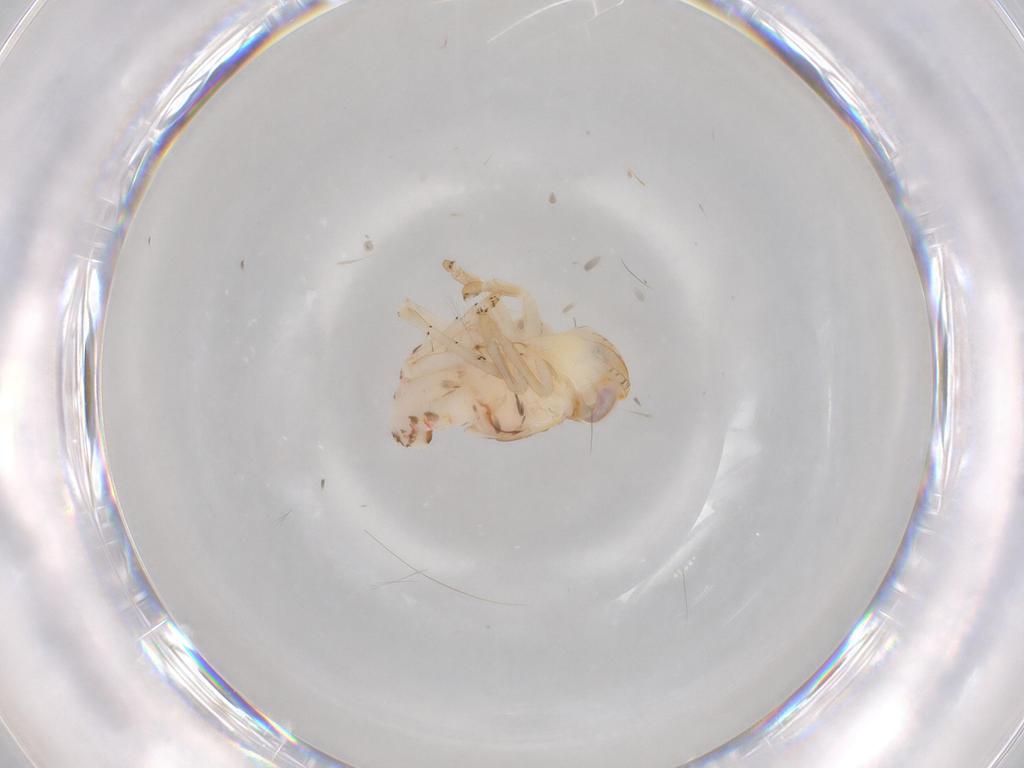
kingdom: Animalia
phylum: Arthropoda
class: Insecta
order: Hemiptera
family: Nogodinidae
